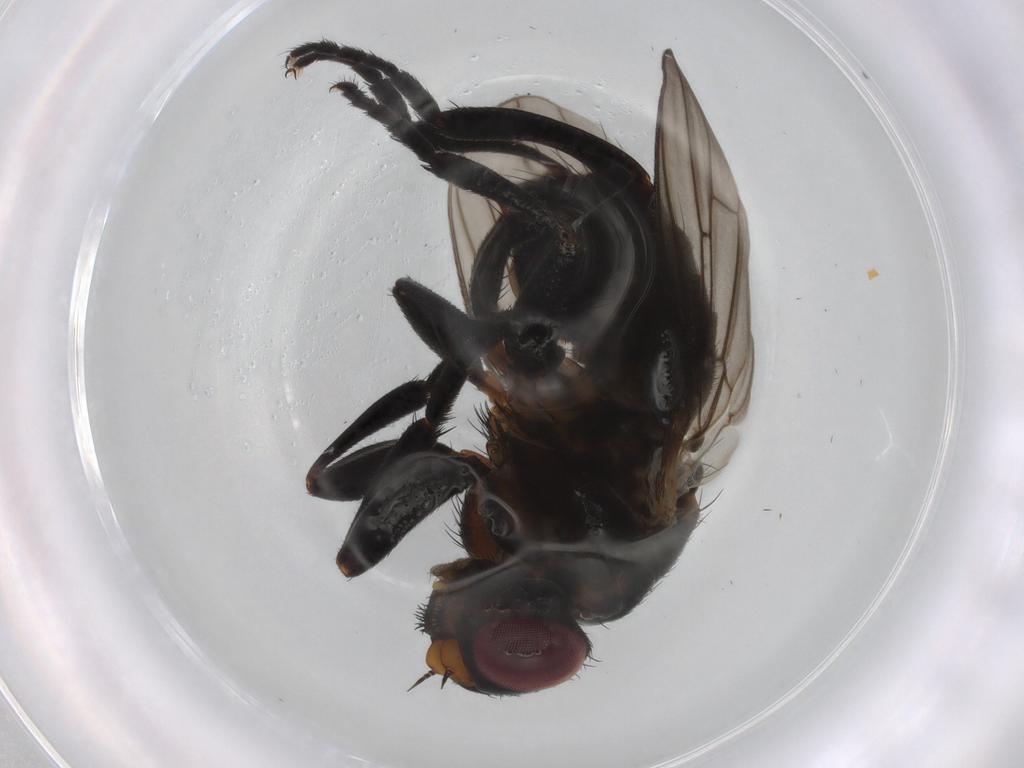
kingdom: Animalia
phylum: Arthropoda
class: Insecta
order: Diptera
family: Calliphoridae
